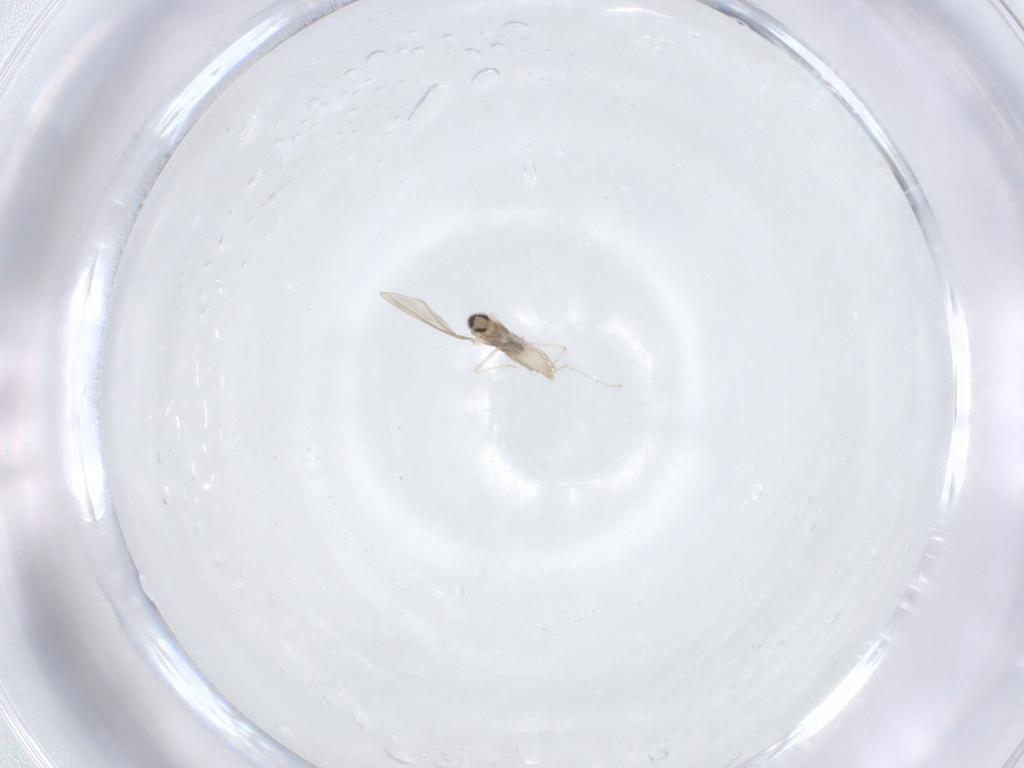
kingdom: Animalia
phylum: Arthropoda
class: Insecta
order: Diptera
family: Cecidomyiidae
